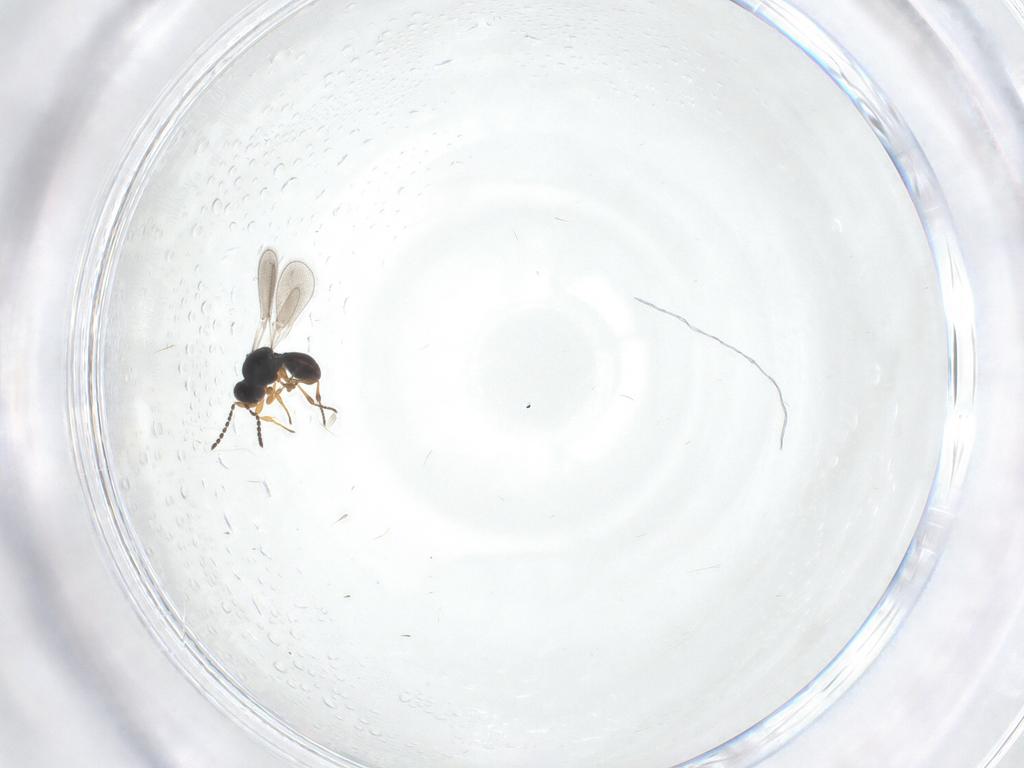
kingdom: Animalia
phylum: Arthropoda
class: Insecta
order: Hymenoptera
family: Platygastridae
